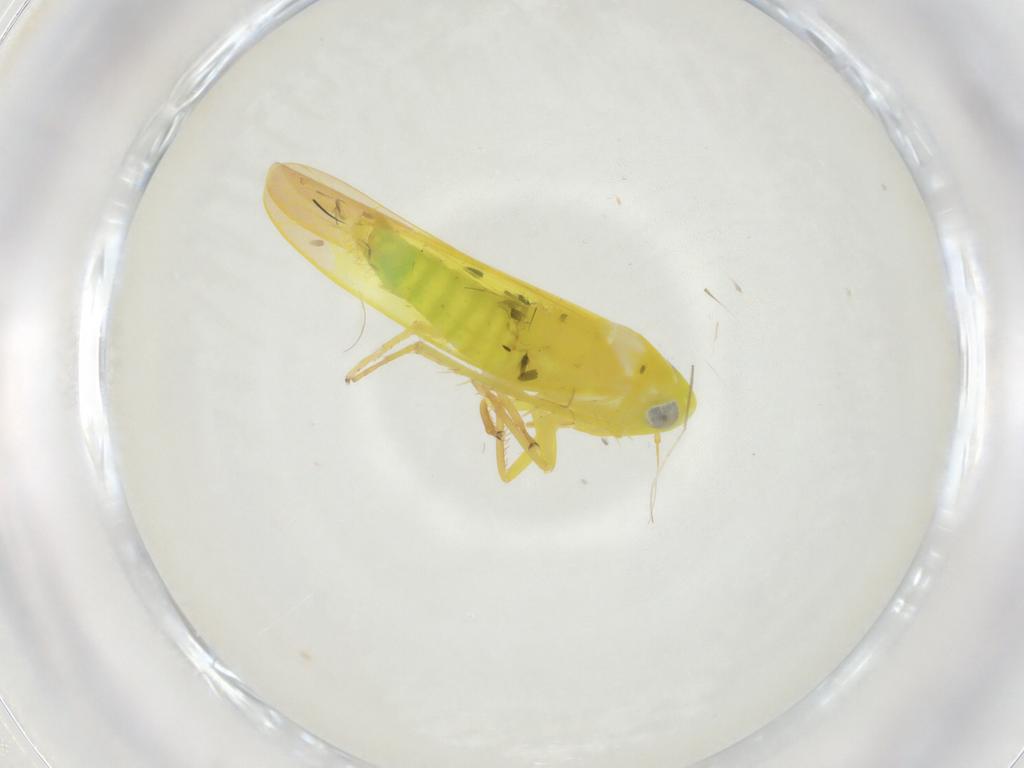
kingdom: Animalia
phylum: Arthropoda
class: Insecta
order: Hemiptera
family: Cicadellidae
